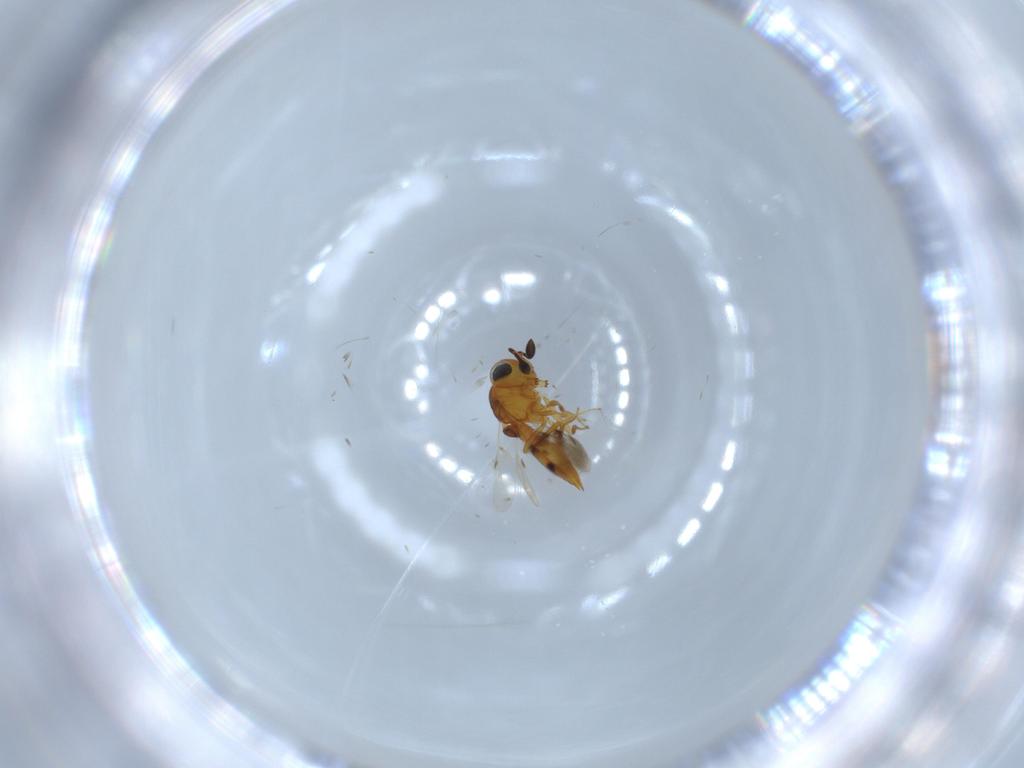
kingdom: Animalia
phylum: Arthropoda
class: Insecta
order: Hymenoptera
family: Scelionidae
